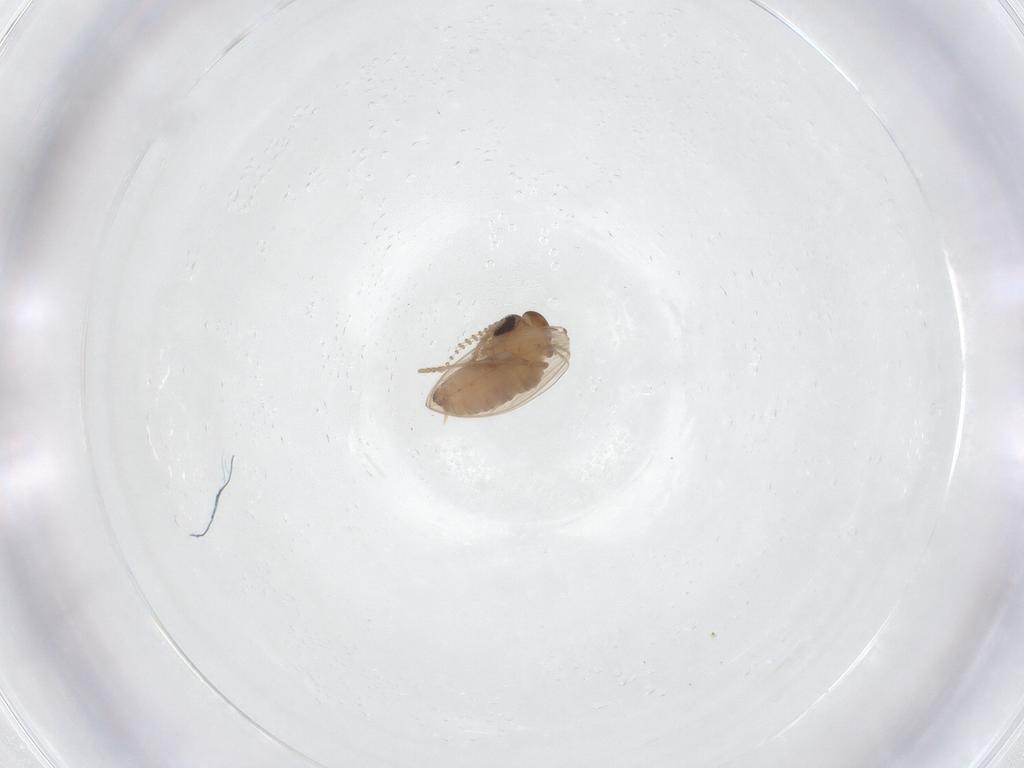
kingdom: Animalia
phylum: Arthropoda
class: Insecta
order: Diptera
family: Psychodidae
